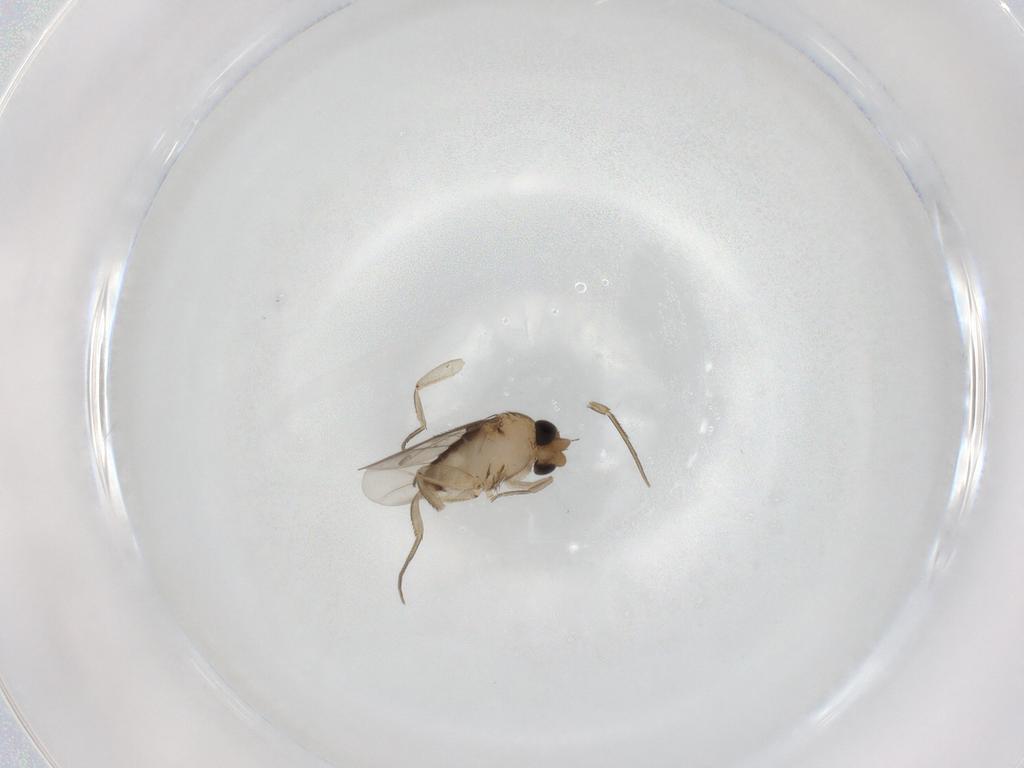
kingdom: Animalia
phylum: Arthropoda
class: Insecta
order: Diptera
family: Phoridae
